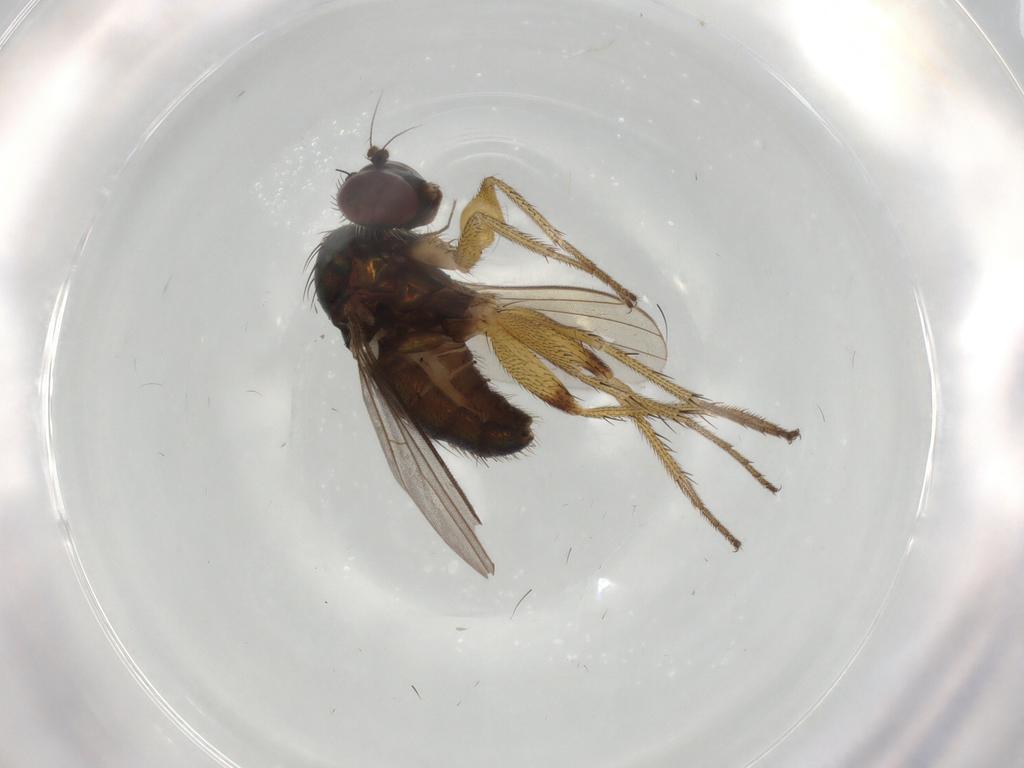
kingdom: Animalia
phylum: Arthropoda
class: Insecta
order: Diptera
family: Dolichopodidae
